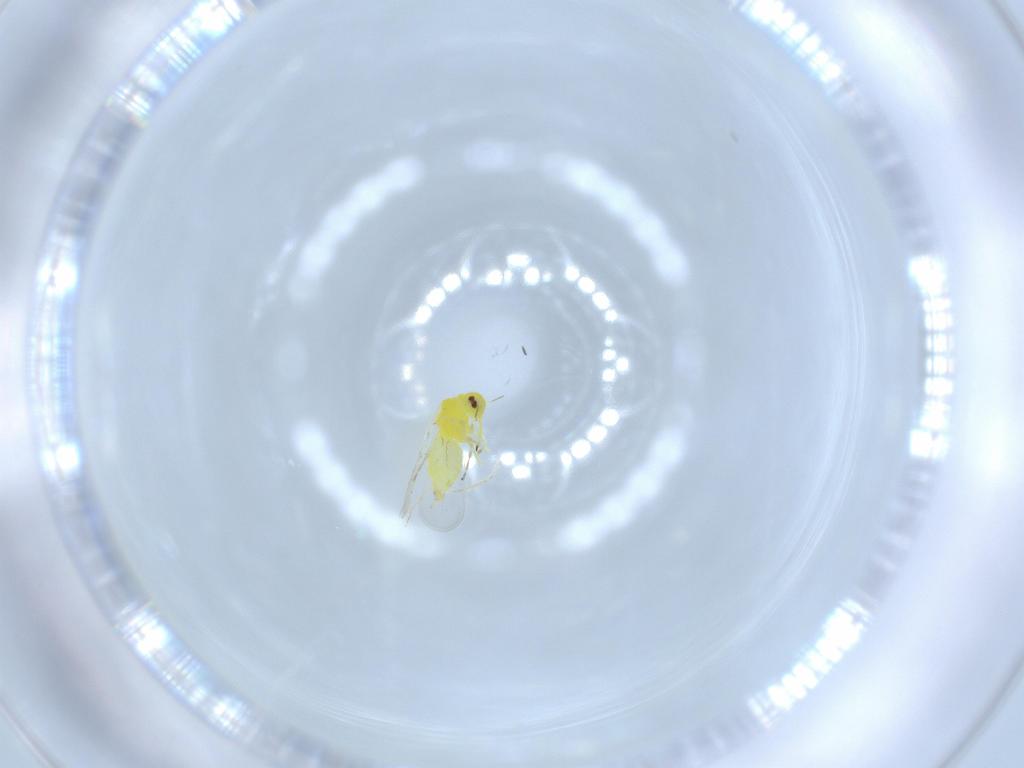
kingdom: Animalia
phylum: Arthropoda
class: Insecta
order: Hemiptera
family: Aleyrodidae
